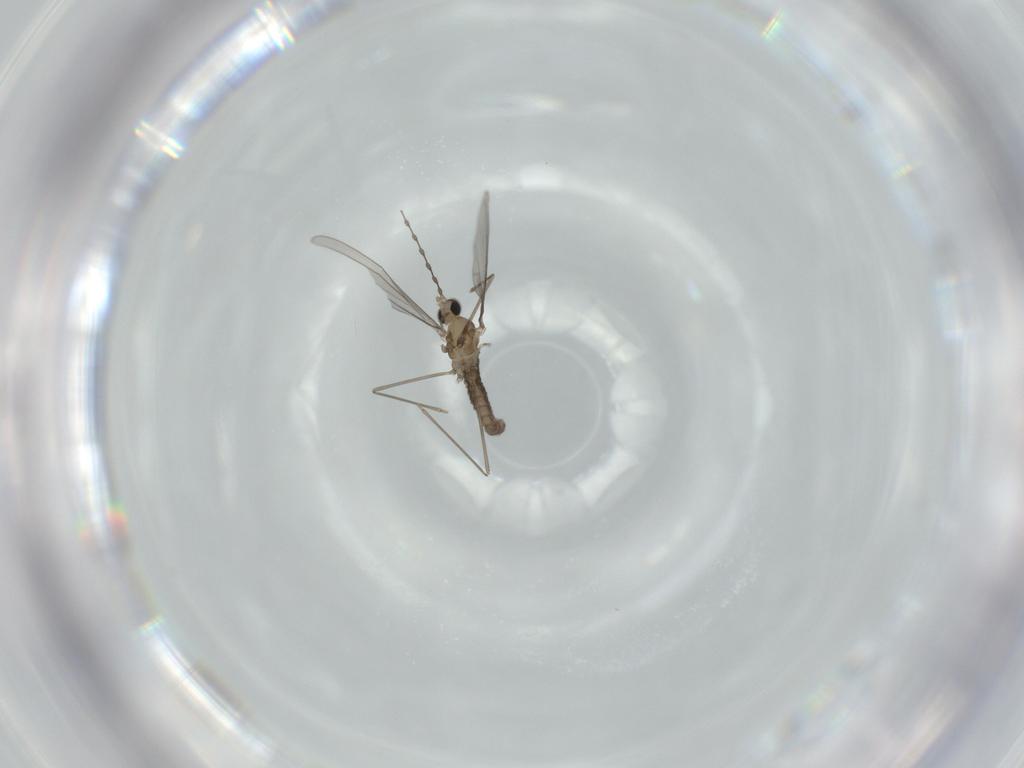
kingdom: Animalia
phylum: Arthropoda
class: Insecta
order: Diptera
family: Cecidomyiidae
